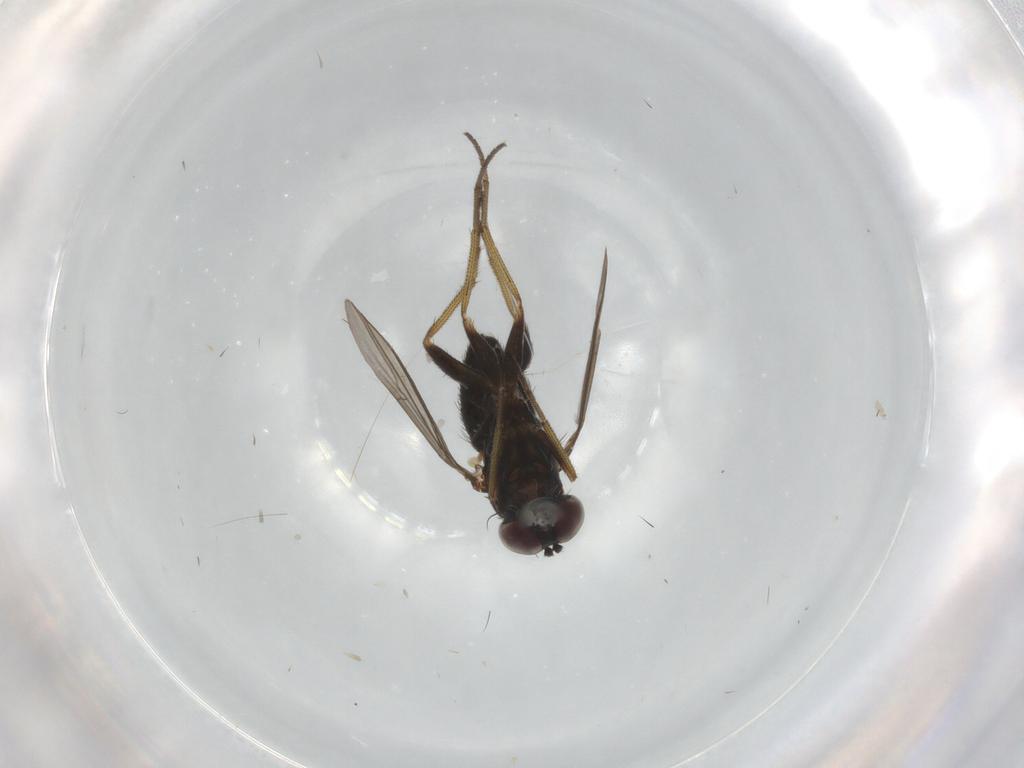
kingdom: Animalia
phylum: Arthropoda
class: Insecta
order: Diptera
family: Dolichopodidae
